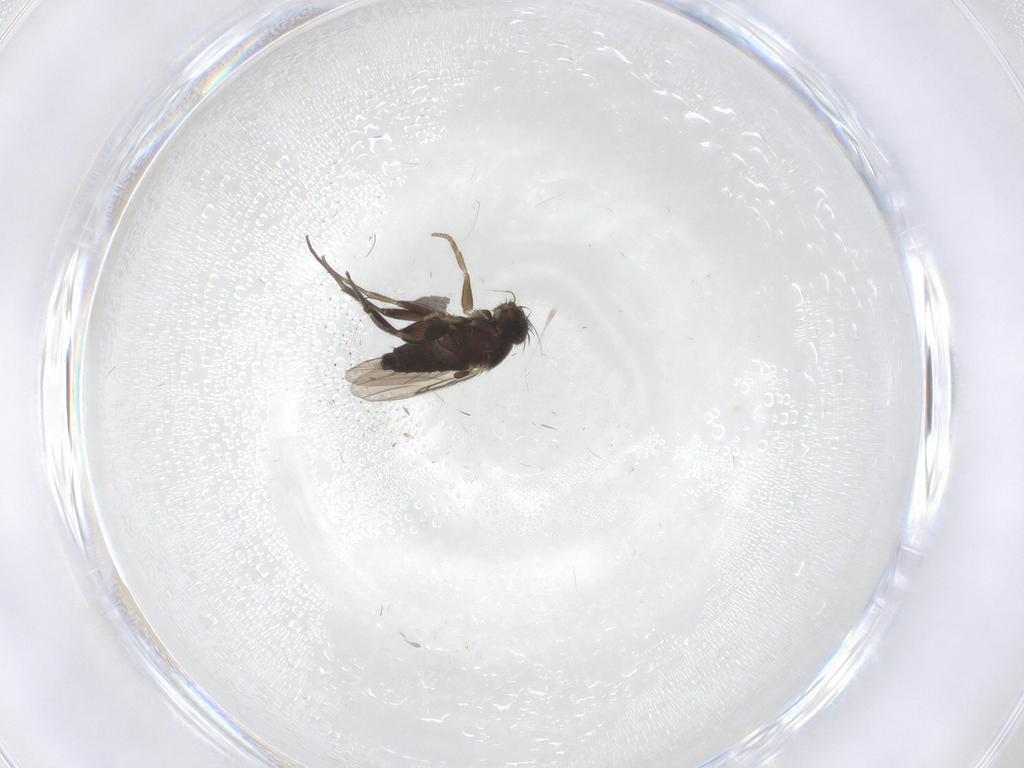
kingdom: Animalia
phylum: Arthropoda
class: Insecta
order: Diptera
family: Phoridae
